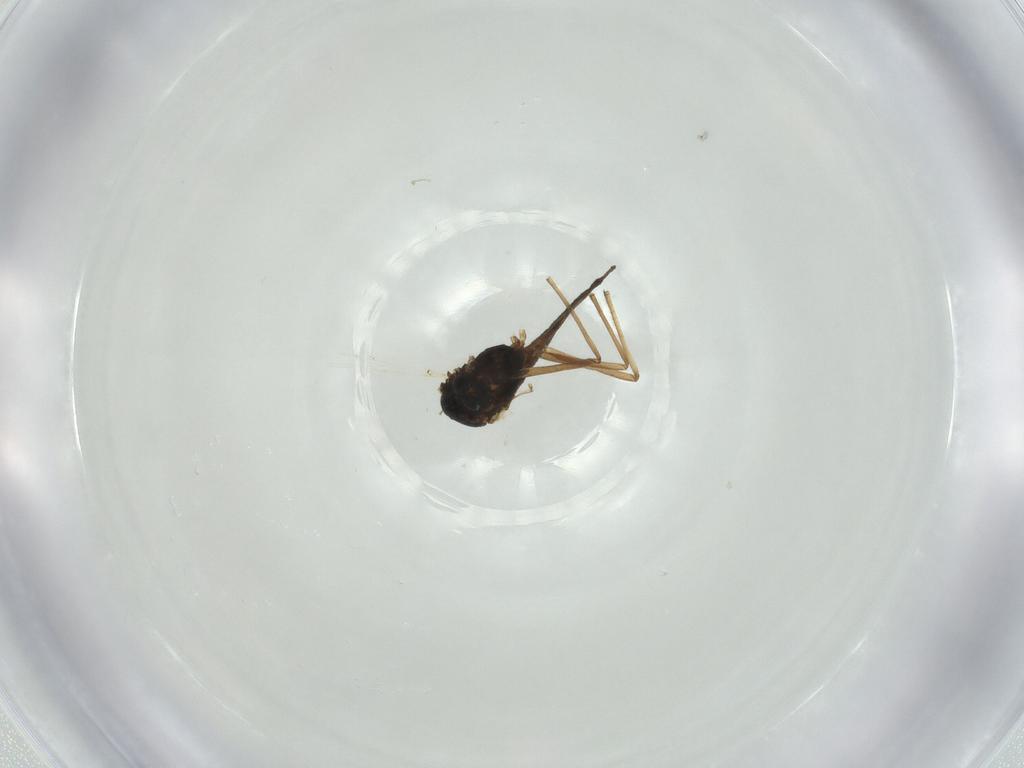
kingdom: Animalia
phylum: Arthropoda
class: Insecta
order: Diptera
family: Chironomidae
